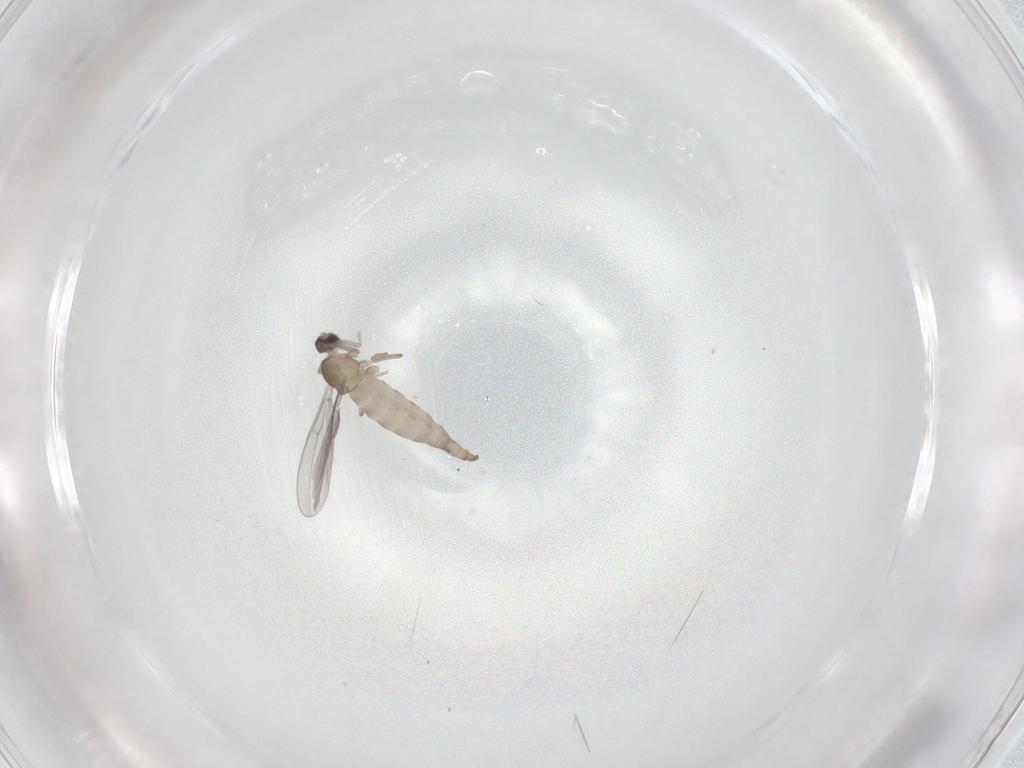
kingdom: Animalia
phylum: Arthropoda
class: Insecta
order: Diptera
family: Cecidomyiidae
